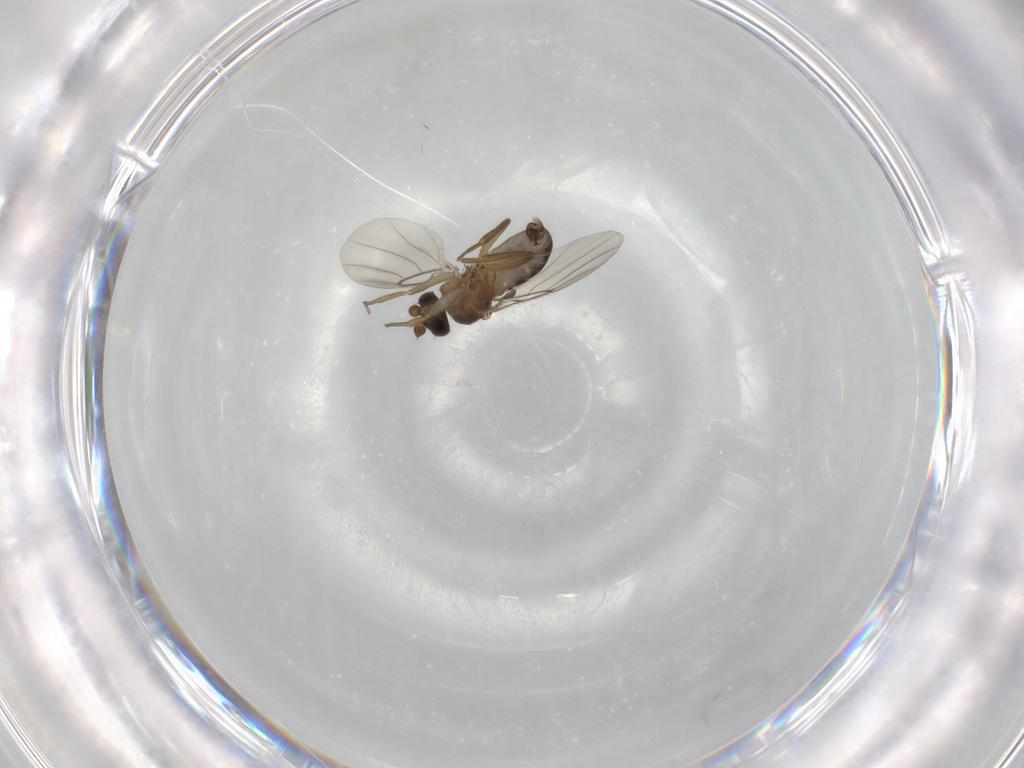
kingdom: Animalia
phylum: Arthropoda
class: Insecta
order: Diptera
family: Phoridae
